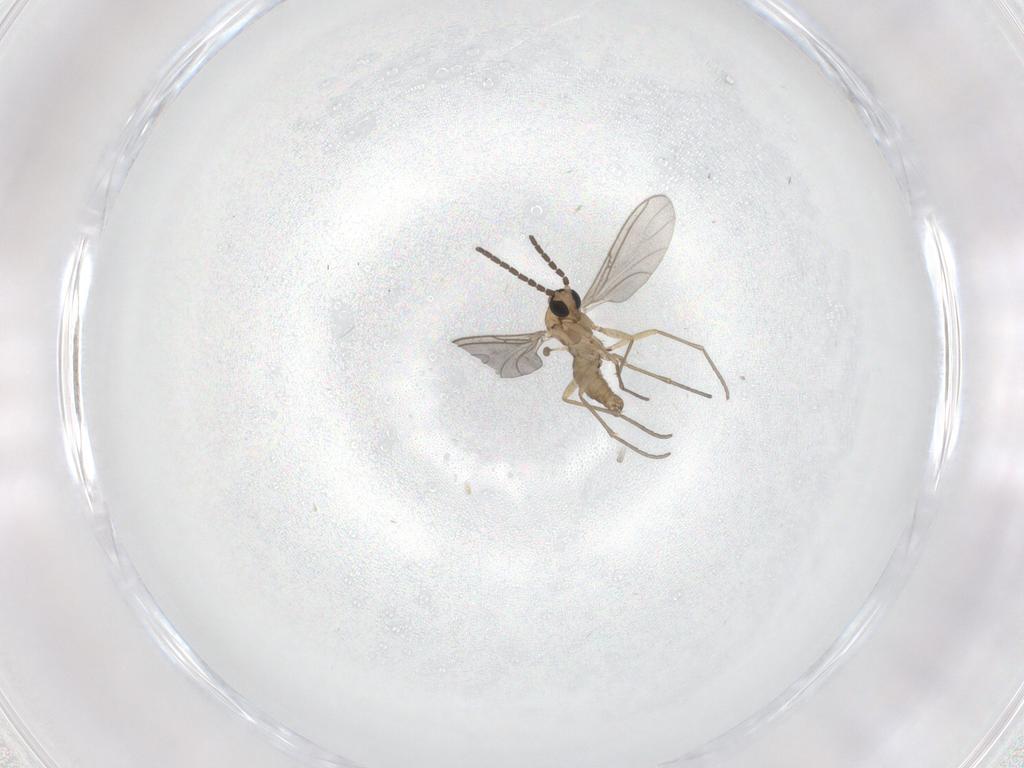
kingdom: Animalia
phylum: Arthropoda
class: Insecta
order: Diptera
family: Sciaridae
